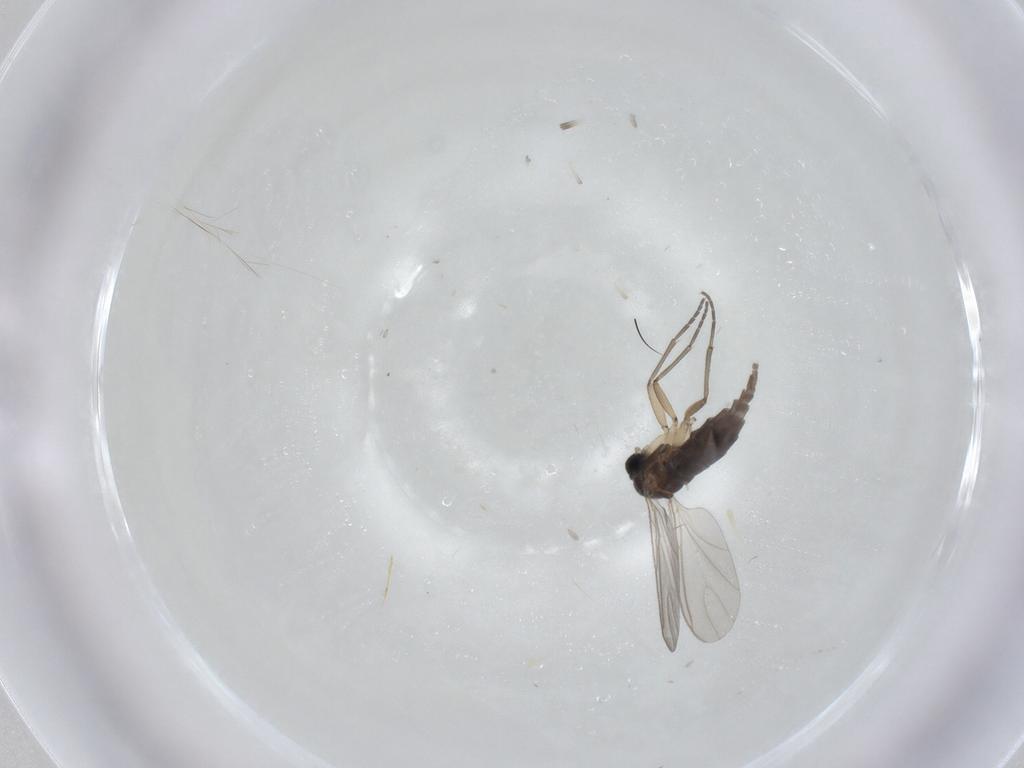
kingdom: Animalia
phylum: Arthropoda
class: Insecta
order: Diptera
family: Sciaridae
